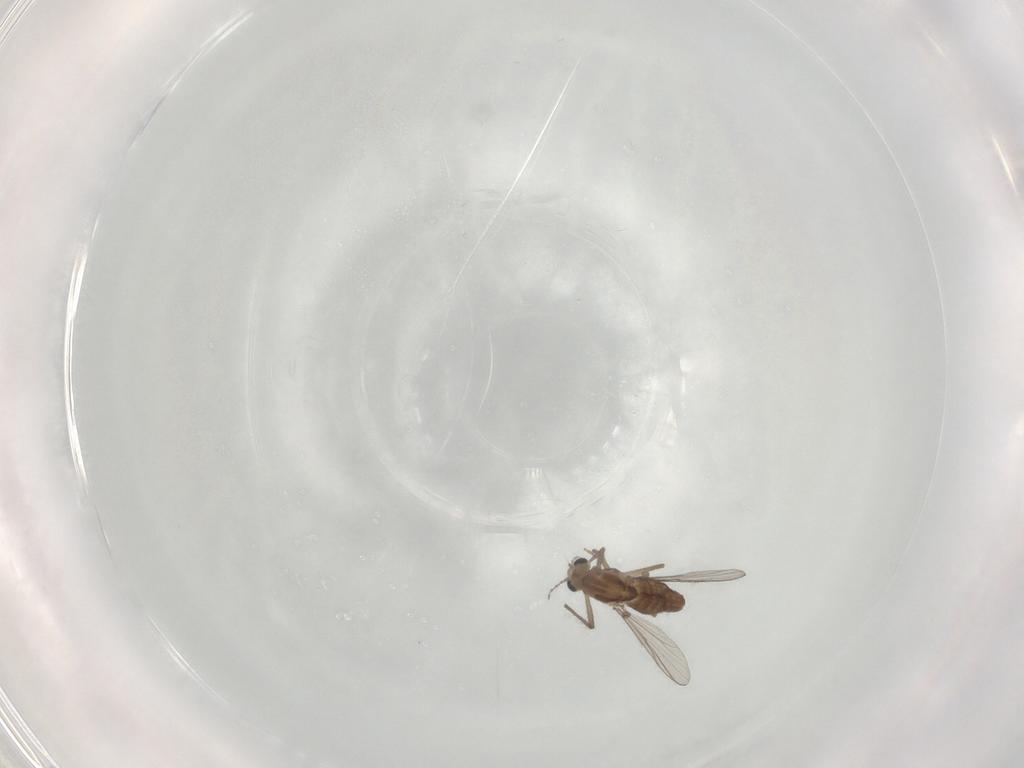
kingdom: Animalia
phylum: Arthropoda
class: Insecta
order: Diptera
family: Chironomidae
